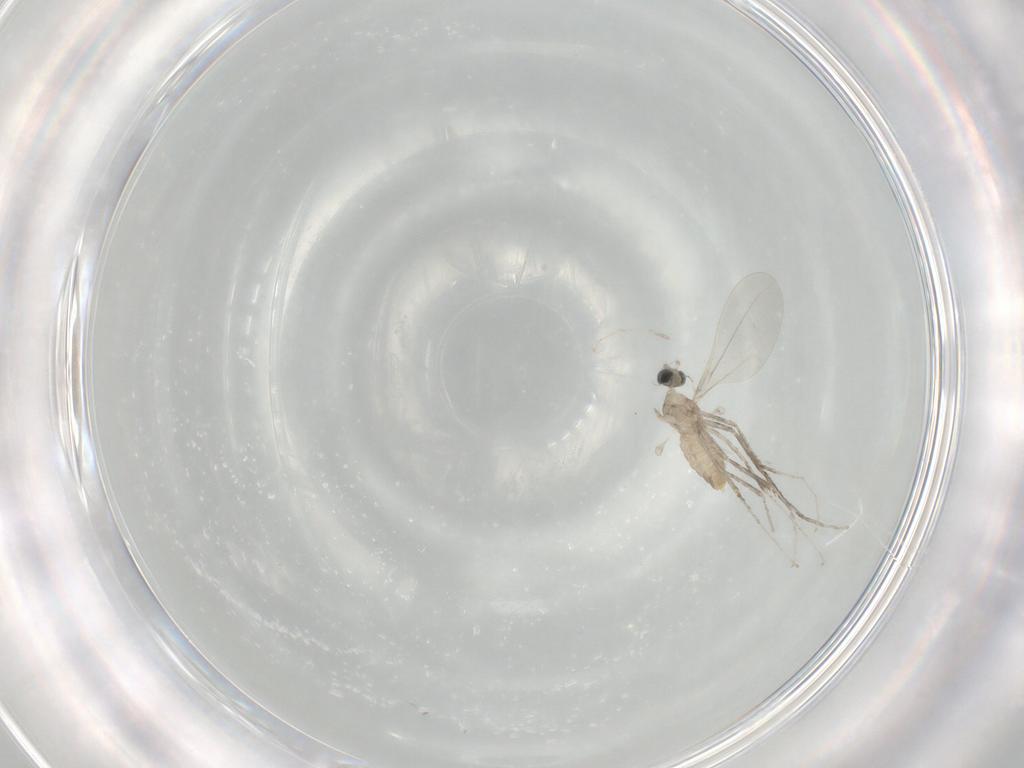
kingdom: Animalia
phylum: Arthropoda
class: Insecta
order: Diptera
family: Cecidomyiidae
